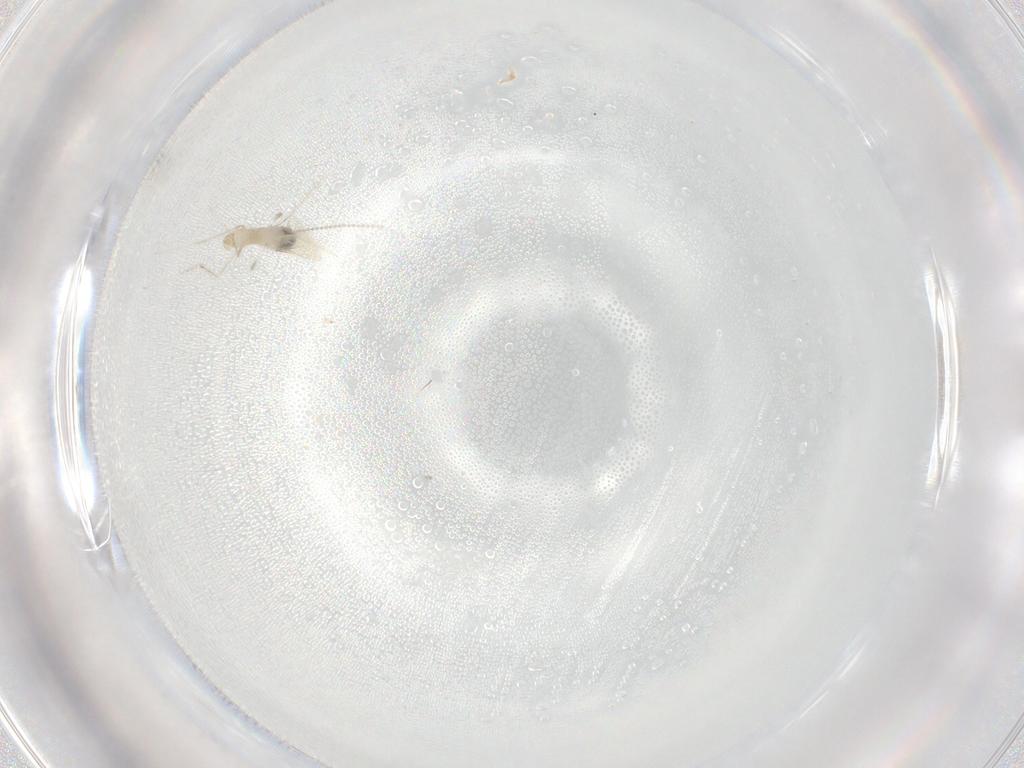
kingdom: Animalia
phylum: Arthropoda
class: Insecta
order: Diptera
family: Cecidomyiidae
